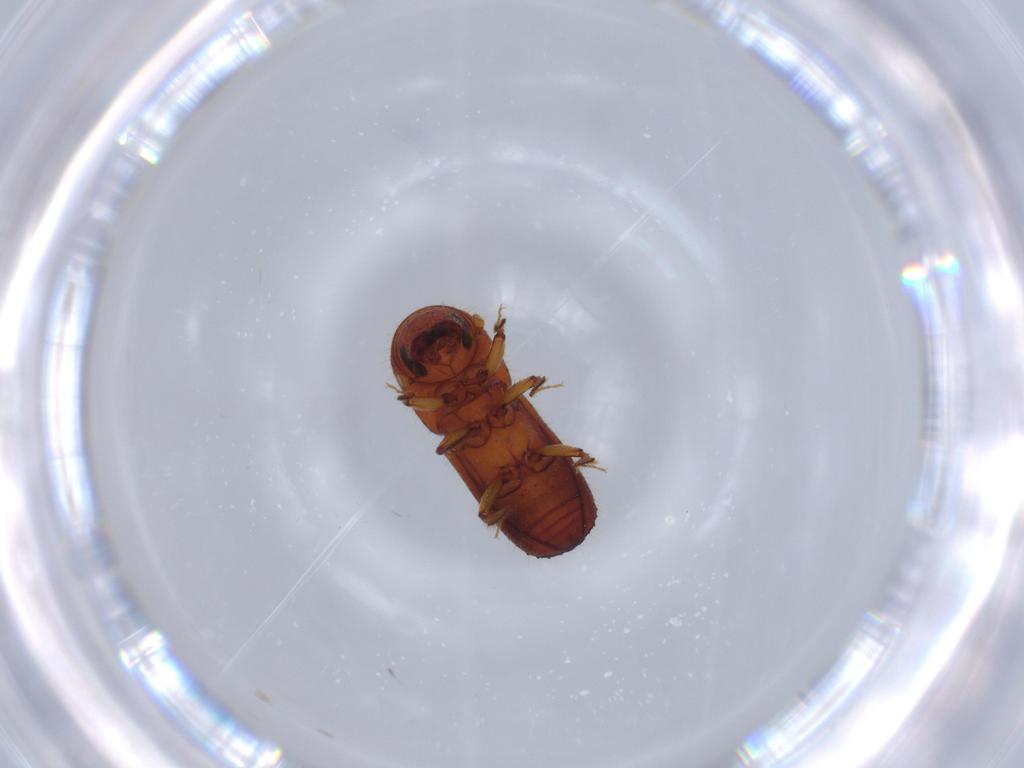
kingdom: Animalia
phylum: Arthropoda
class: Insecta
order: Coleoptera
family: Curculionidae
